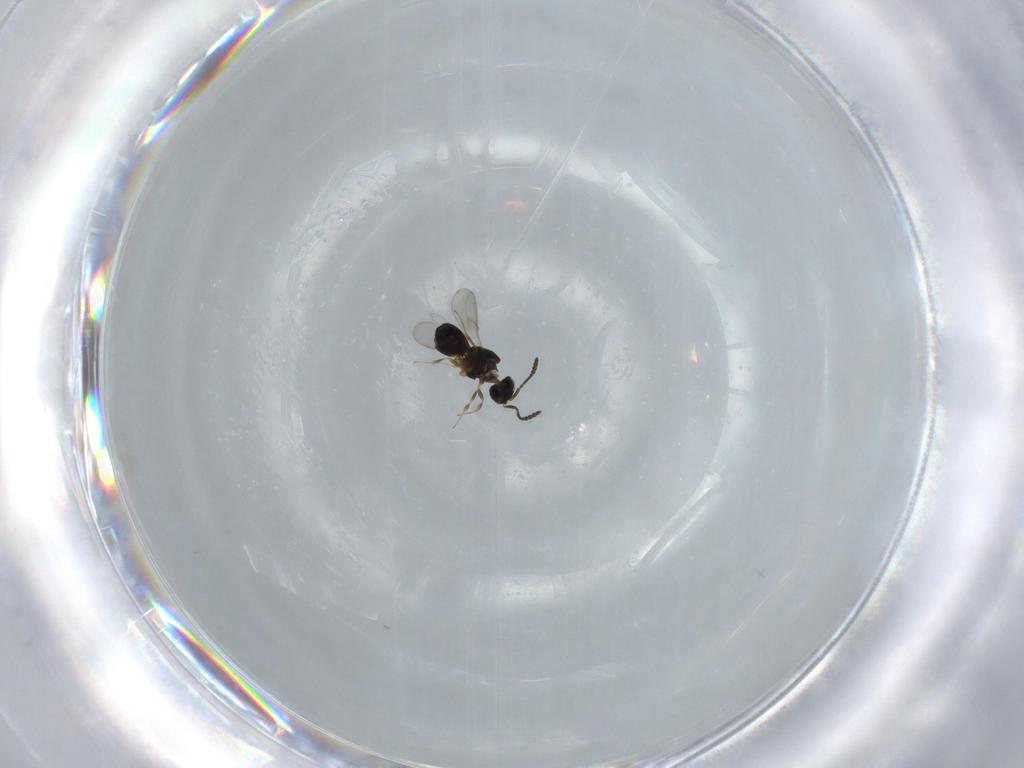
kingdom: Animalia
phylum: Arthropoda
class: Insecta
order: Hymenoptera
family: Scelionidae
